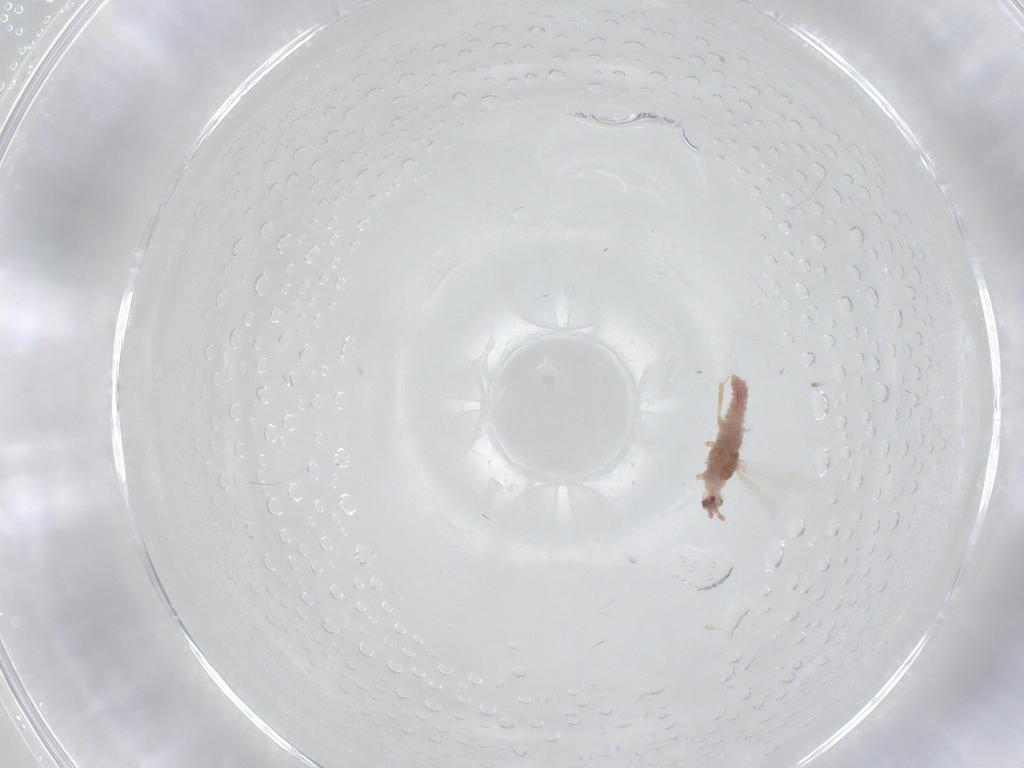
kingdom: Animalia
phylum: Arthropoda
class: Insecta
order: Hemiptera
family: Pseudococcidae
